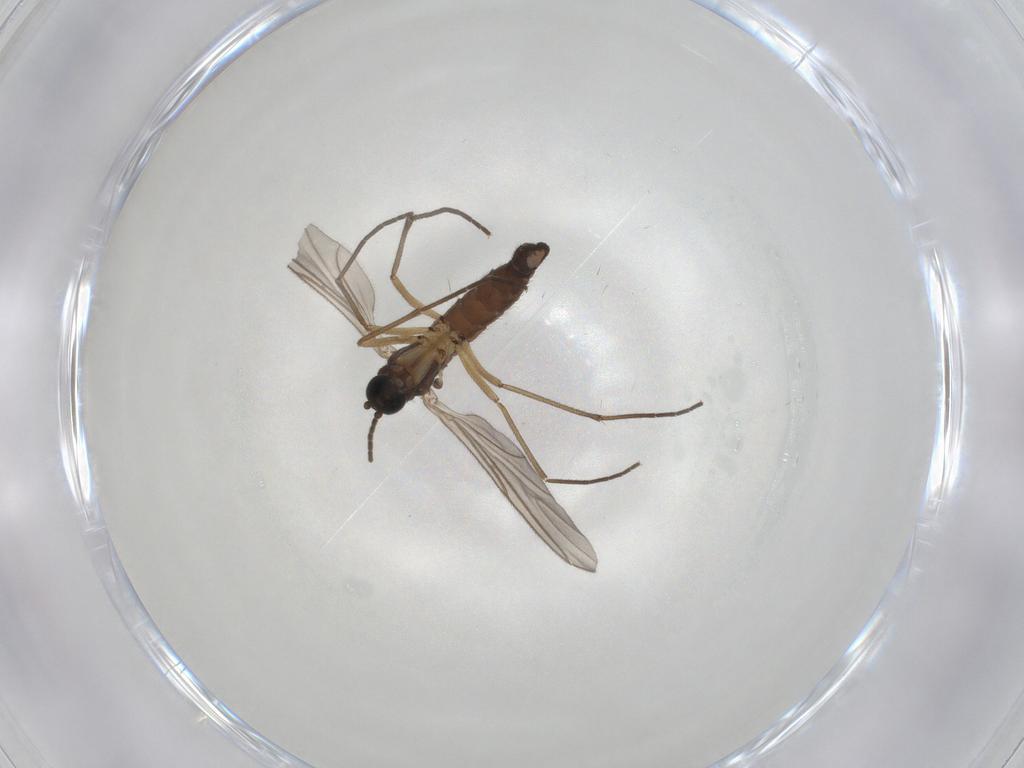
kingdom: Animalia
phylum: Arthropoda
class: Insecta
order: Diptera
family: Sciaridae
